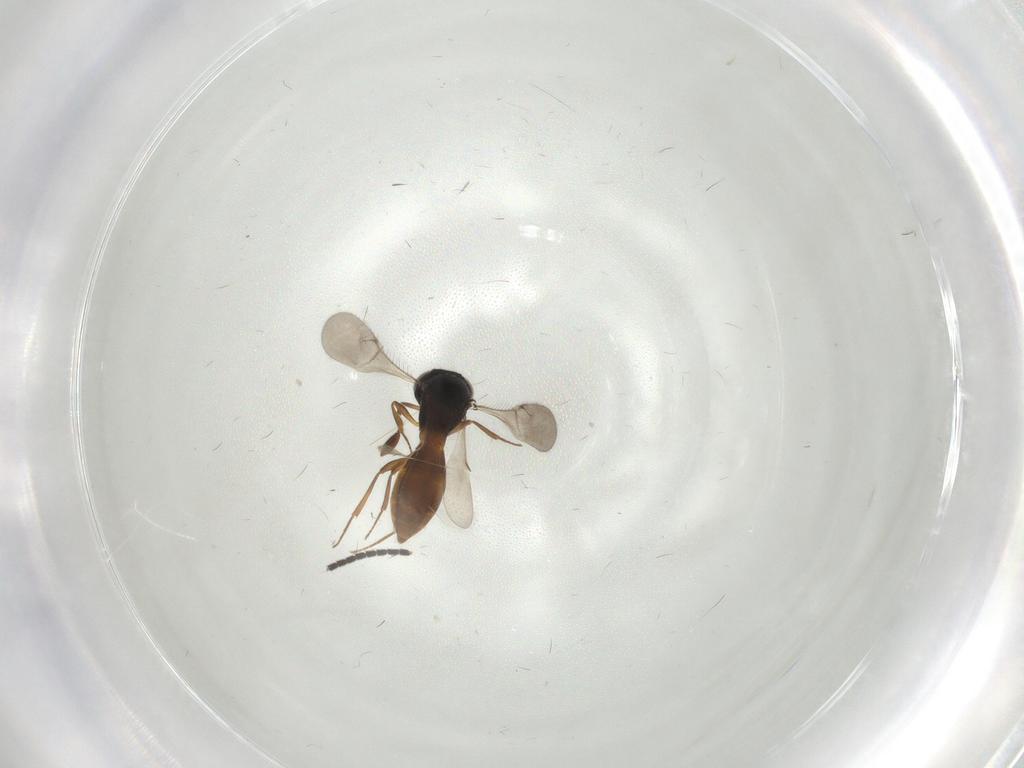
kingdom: Animalia
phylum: Arthropoda
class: Insecta
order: Hymenoptera
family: Scelionidae
